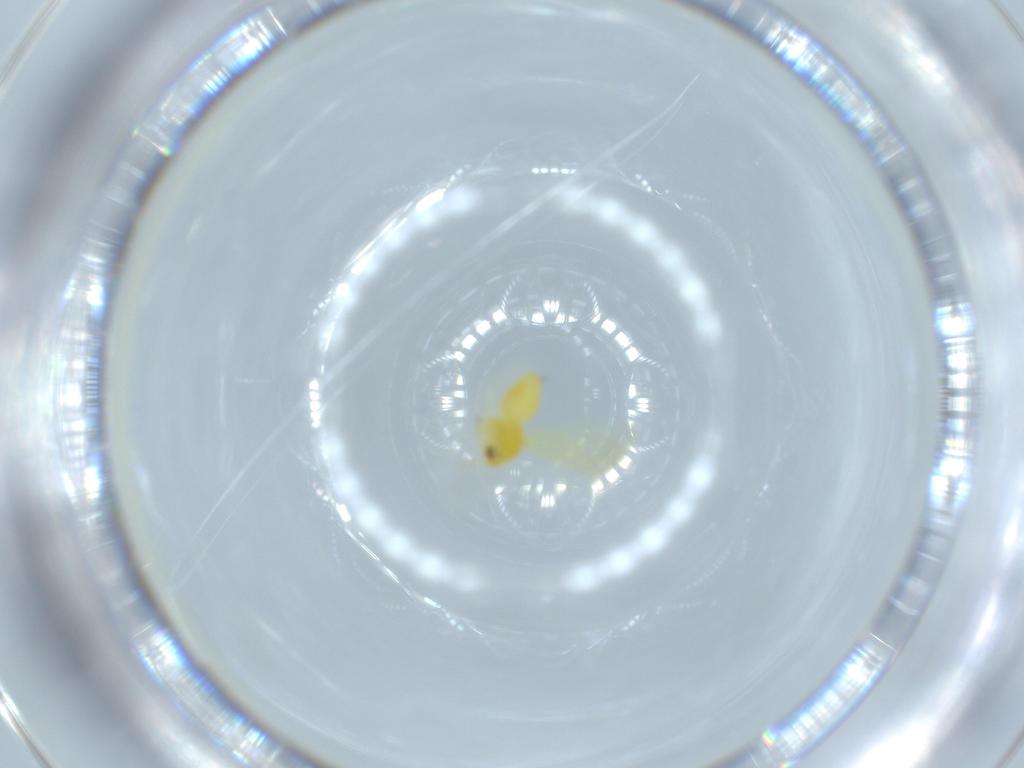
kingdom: Animalia
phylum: Arthropoda
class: Insecta
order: Hemiptera
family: Aleyrodidae
